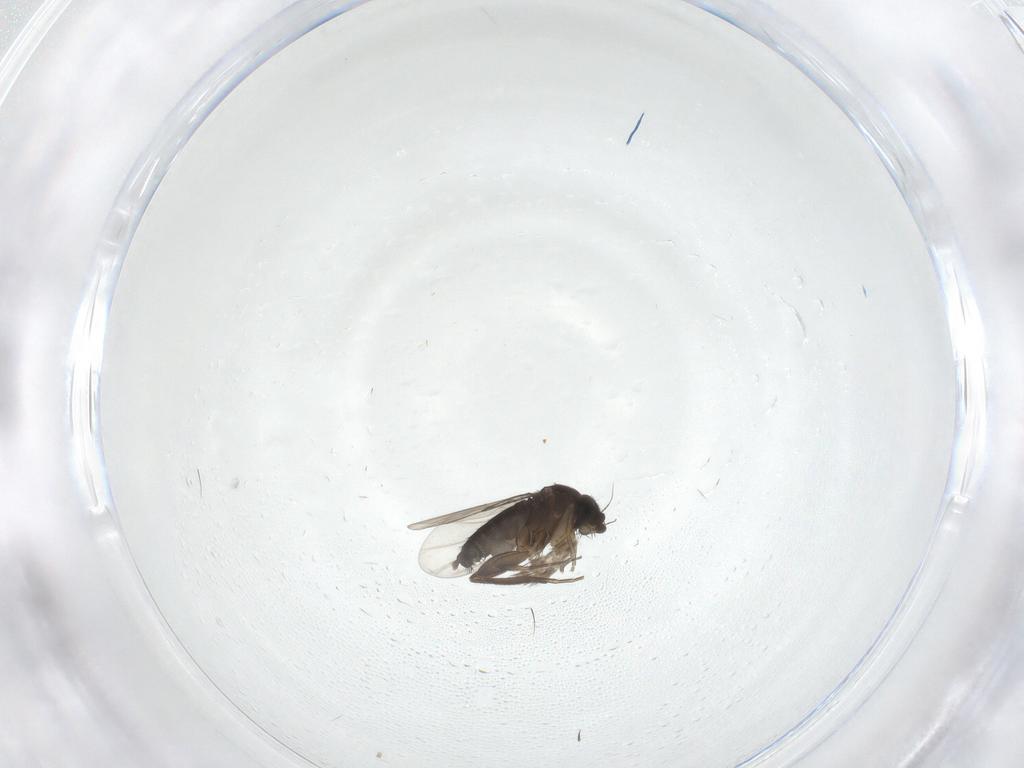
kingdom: Animalia
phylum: Arthropoda
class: Insecta
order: Diptera
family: Phoridae
